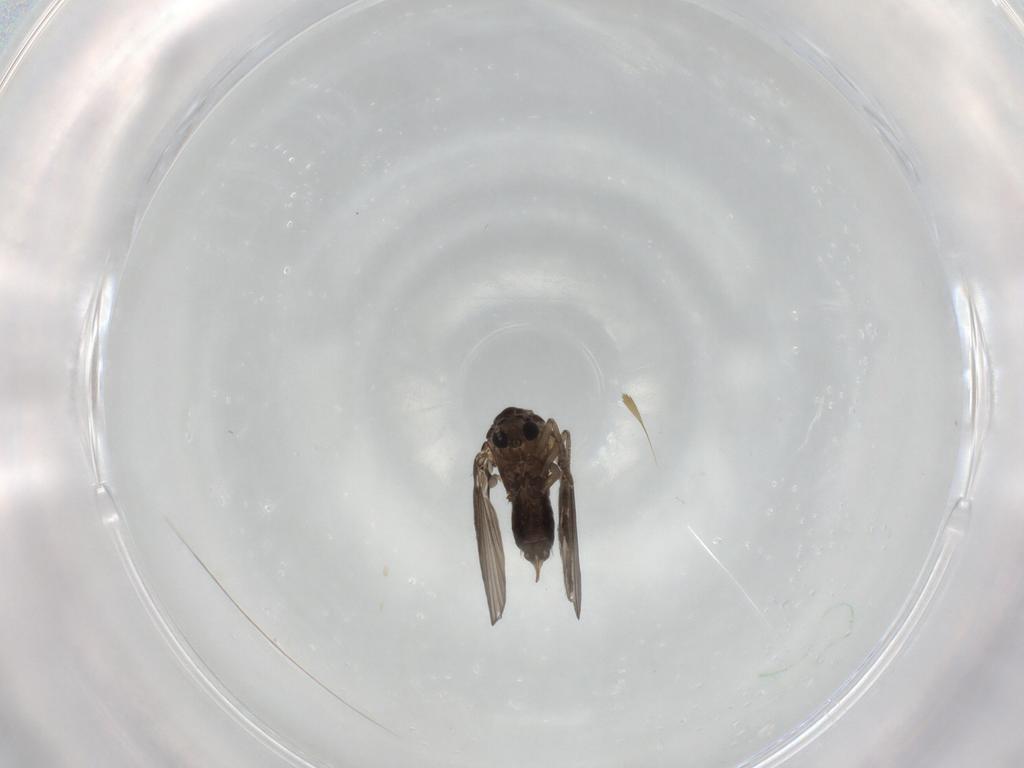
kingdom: Animalia
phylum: Arthropoda
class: Insecta
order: Diptera
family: Psychodidae
